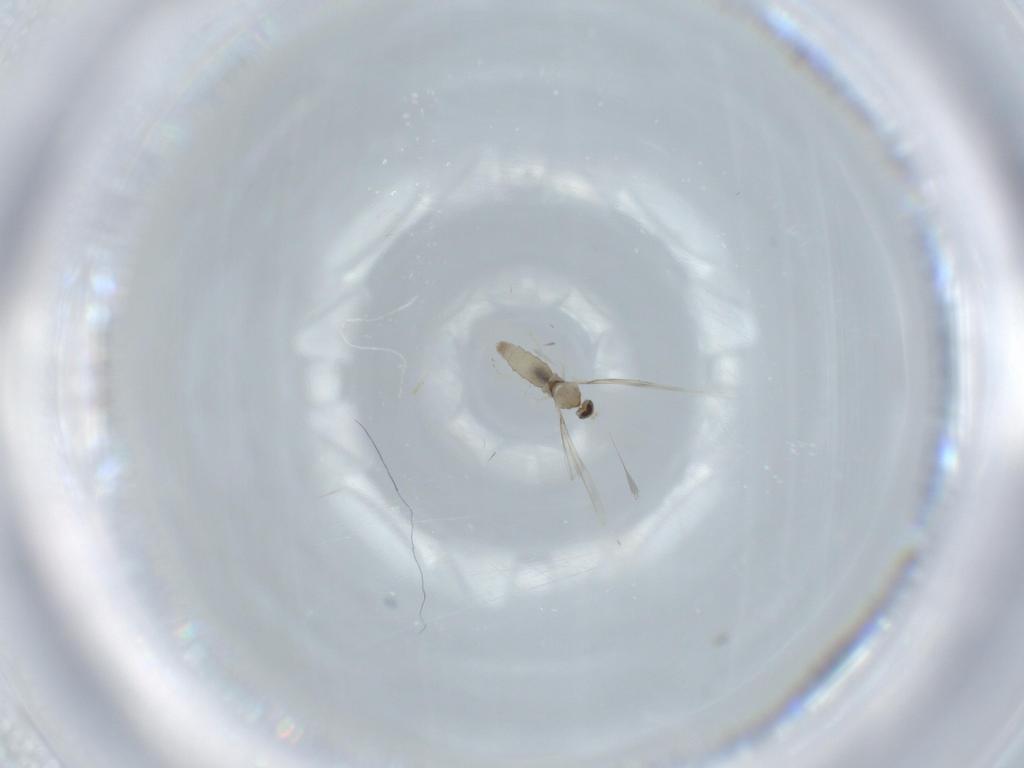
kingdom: Animalia
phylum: Arthropoda
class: Insecta
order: Diptera
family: Cecidomyiidae
